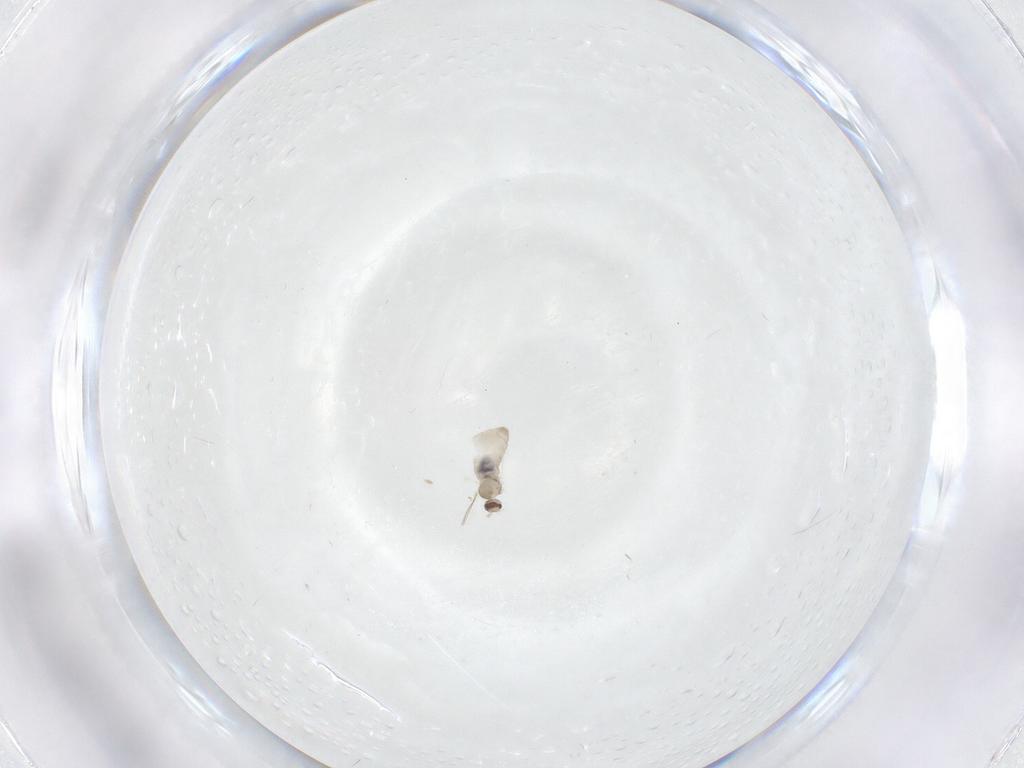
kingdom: Animalia
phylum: Arthropoda
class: Insecta
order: Diptera
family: Cecidomyiidae
